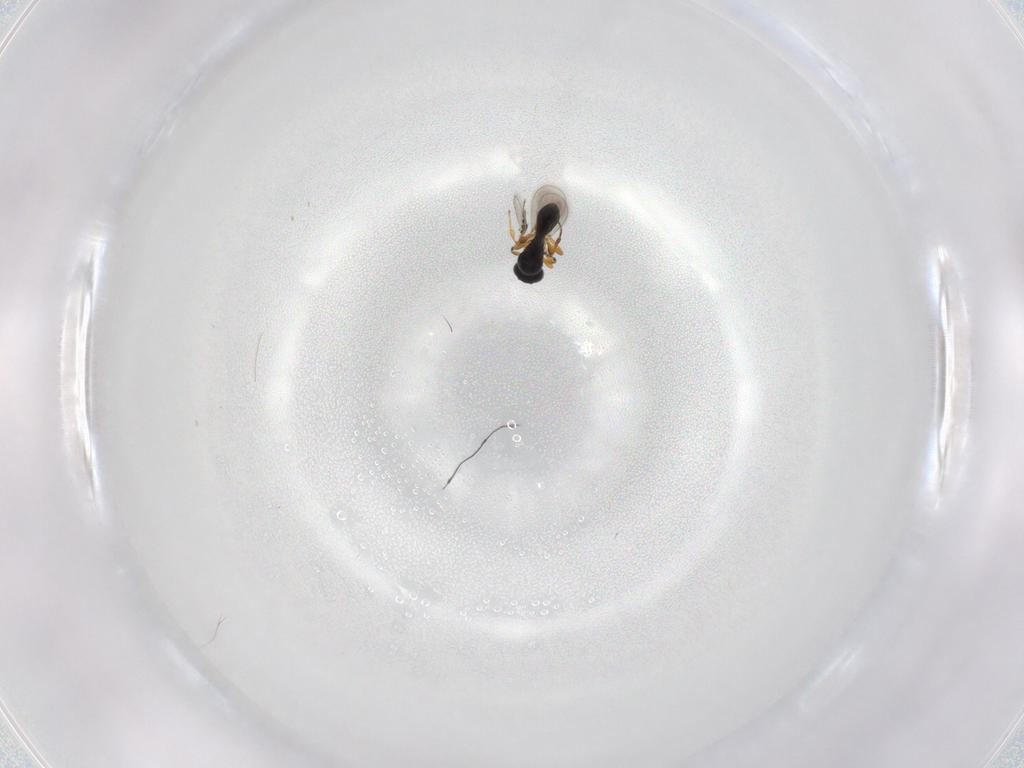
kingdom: Animalia
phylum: Arthropoda
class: Insecta
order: Hymenoptera
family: Platygastridae
